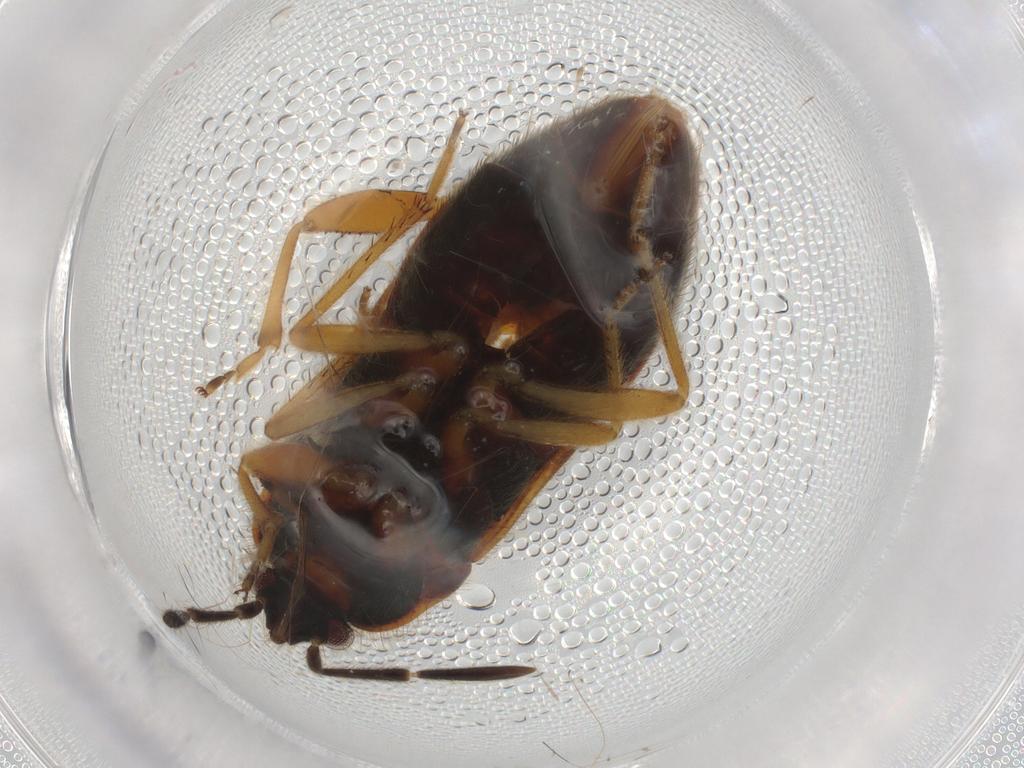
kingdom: Animalia
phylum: Arthropoda
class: Insecta
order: Hemiptera
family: Rhyparochromidae
